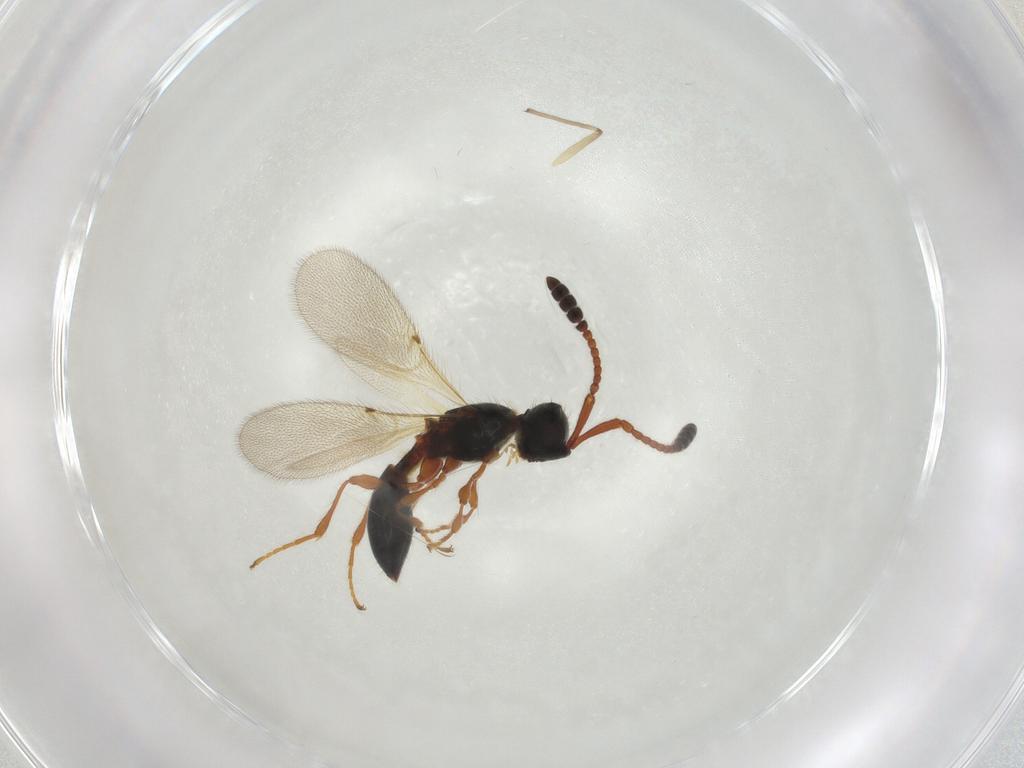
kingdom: Animalia
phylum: Arthropoda
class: Insecta
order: Hymenoptera
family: Diapriidae
